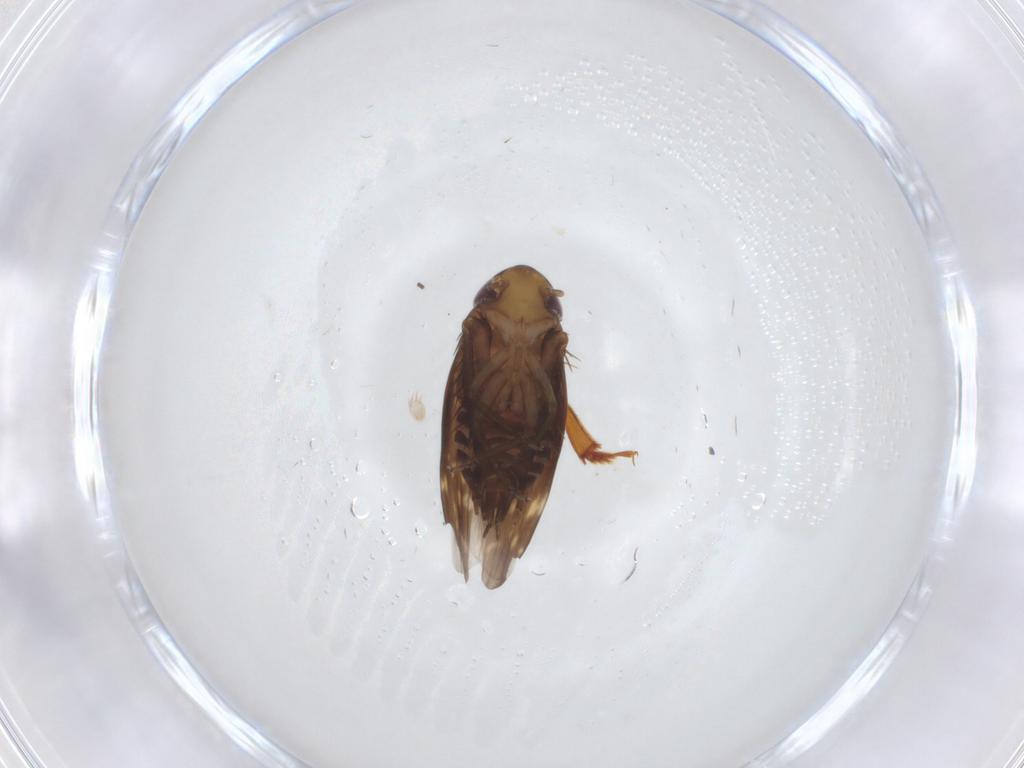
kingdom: Animalia
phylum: Arthropoda
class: Insecta
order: Hemiptera
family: Cicadellidae
